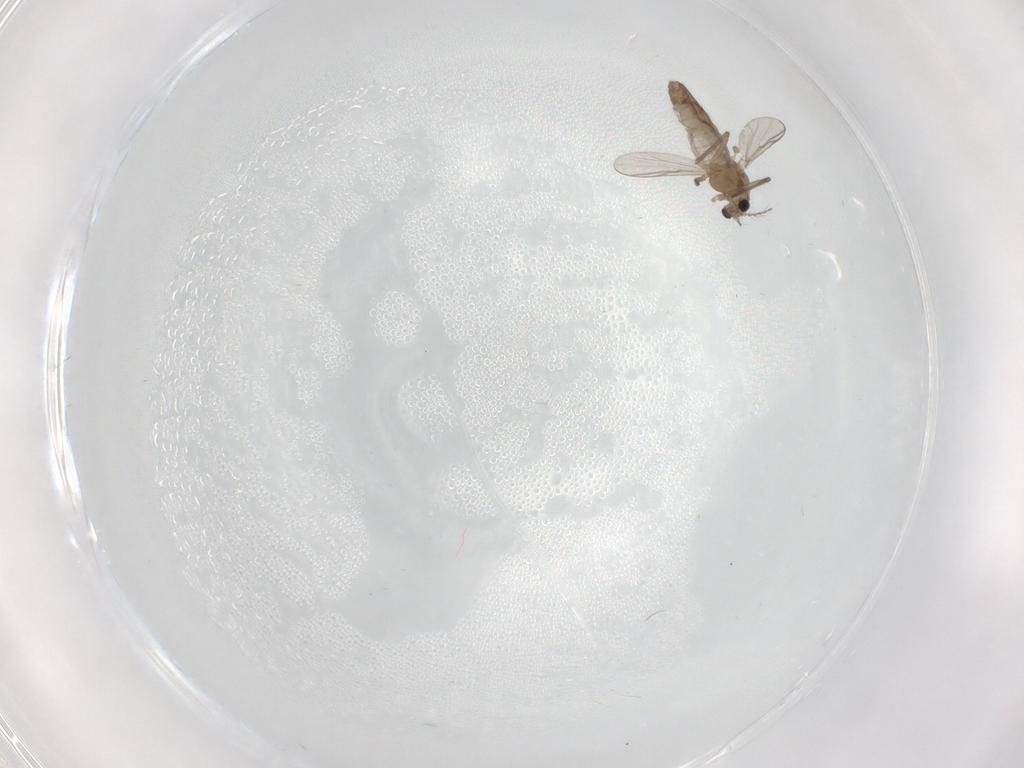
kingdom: Animalia
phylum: Arthropoda
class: Insecta
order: Diptera
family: Chironomidae
